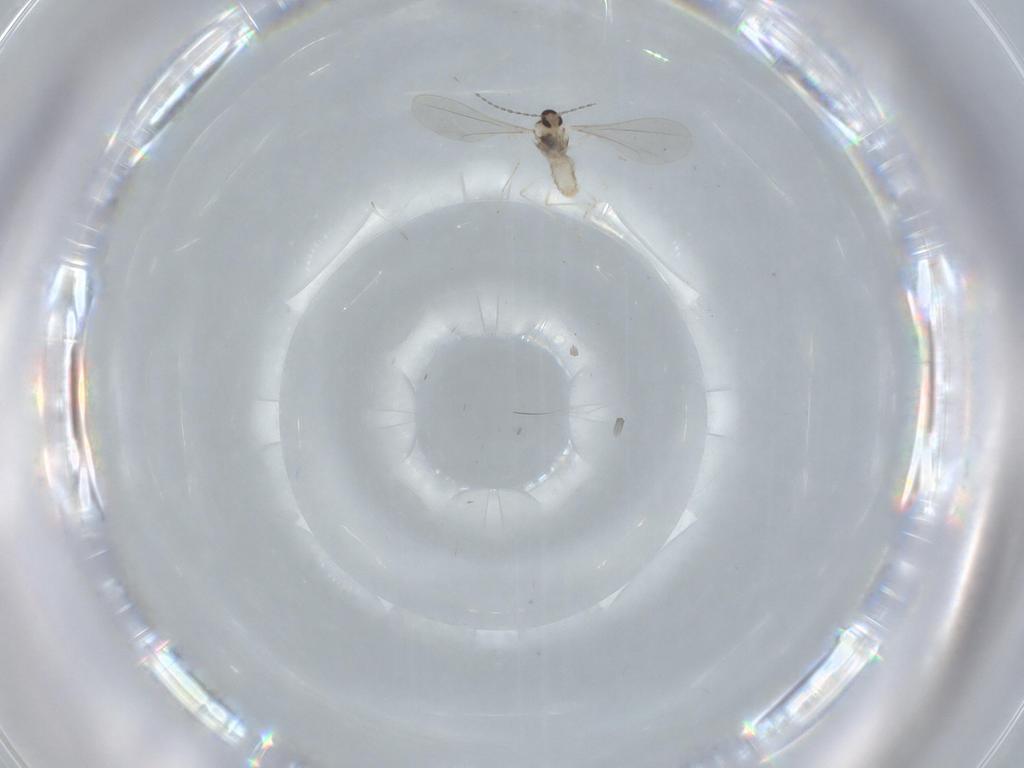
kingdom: Animalia
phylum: Arthropoda
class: Insecta
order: Diptera
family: Cecidomyiidae
